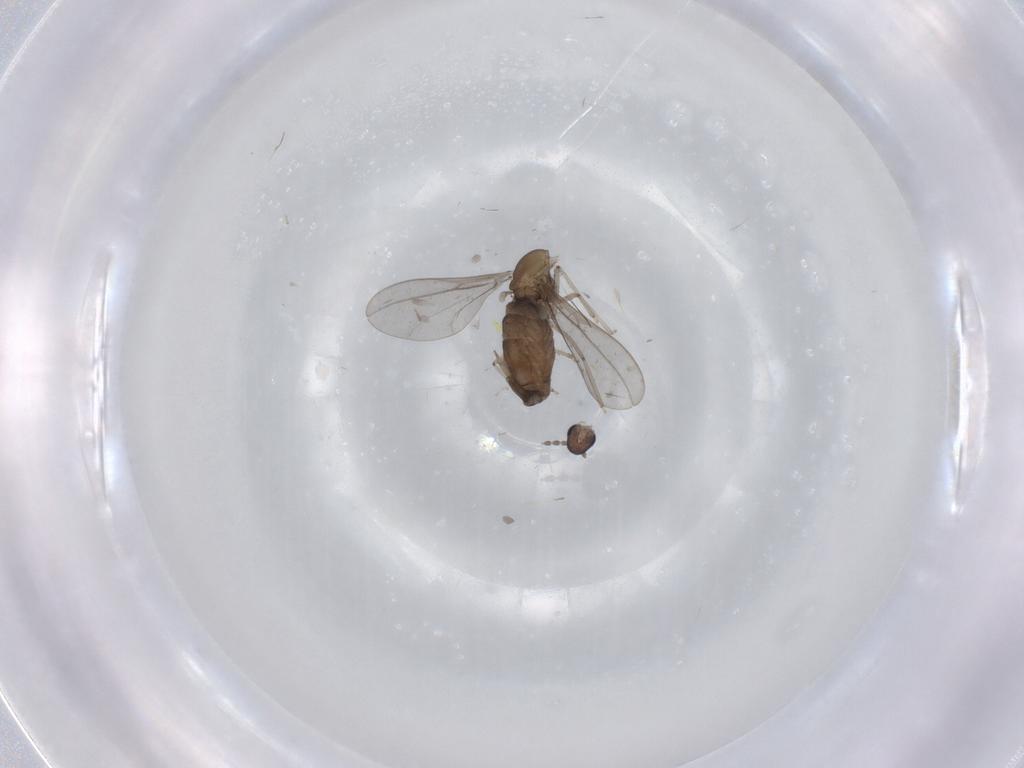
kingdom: Animalia
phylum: Arthropoda
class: Insecta
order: Diptera
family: Cecidomyiidae
